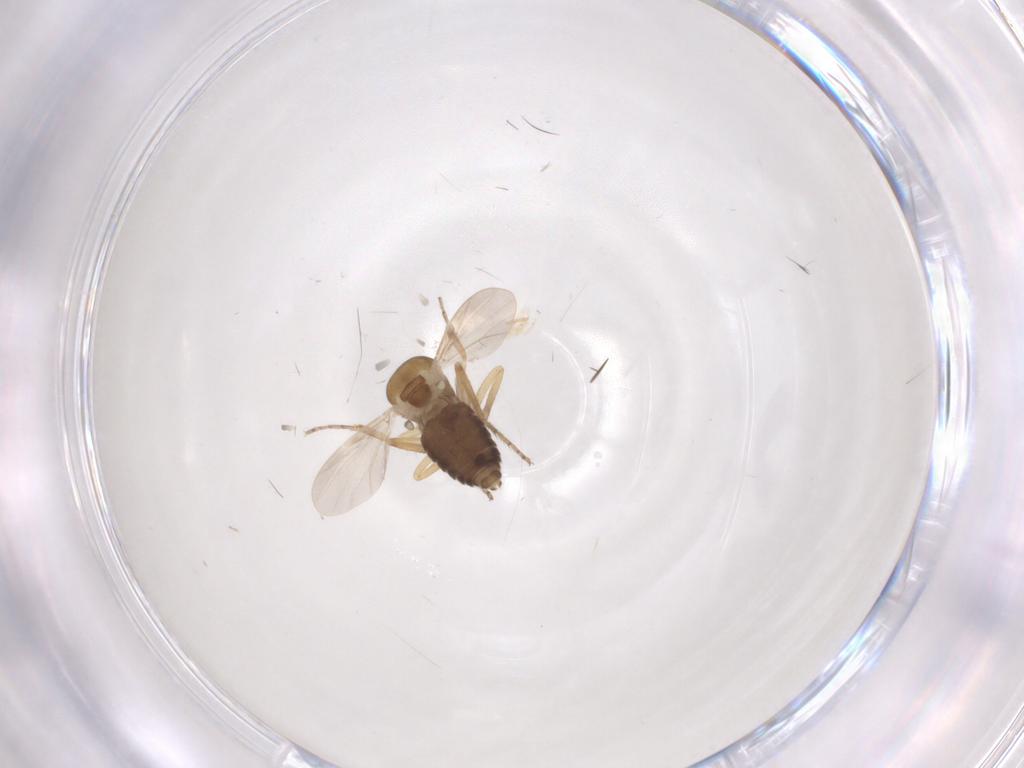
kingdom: Animalia
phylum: Arthropoda
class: Insecta
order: Diptera
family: Ceratopogonidae
